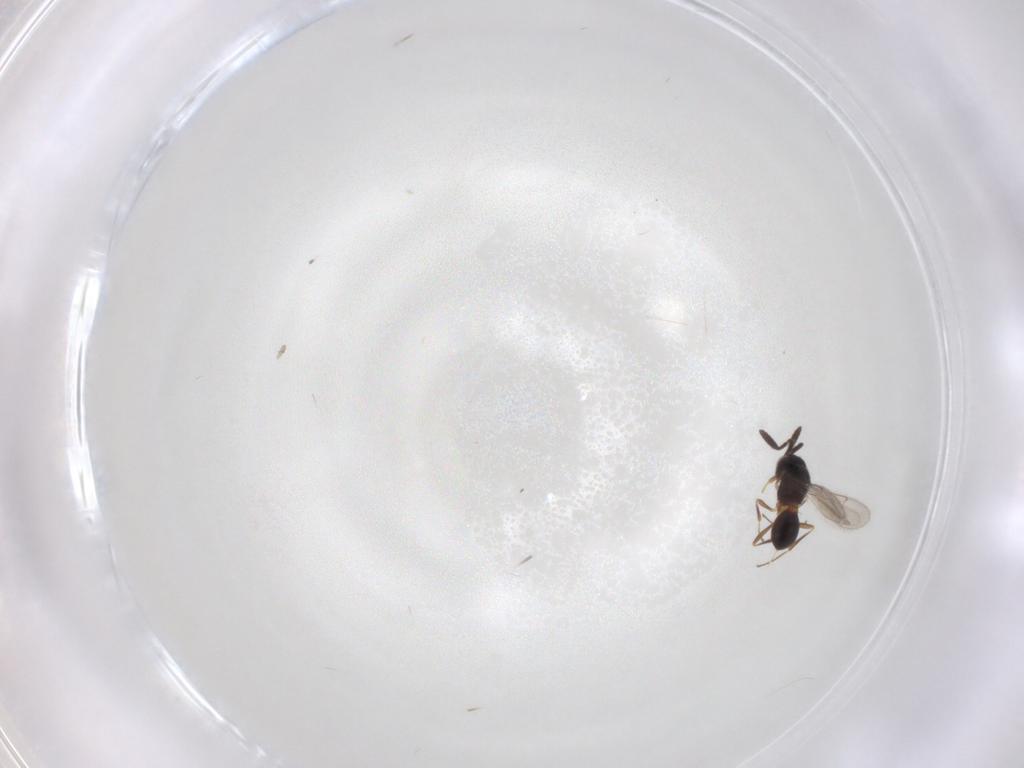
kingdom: Animalia
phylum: Arthropoda
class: Insecta
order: Hymenoptera
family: Scelionidae
